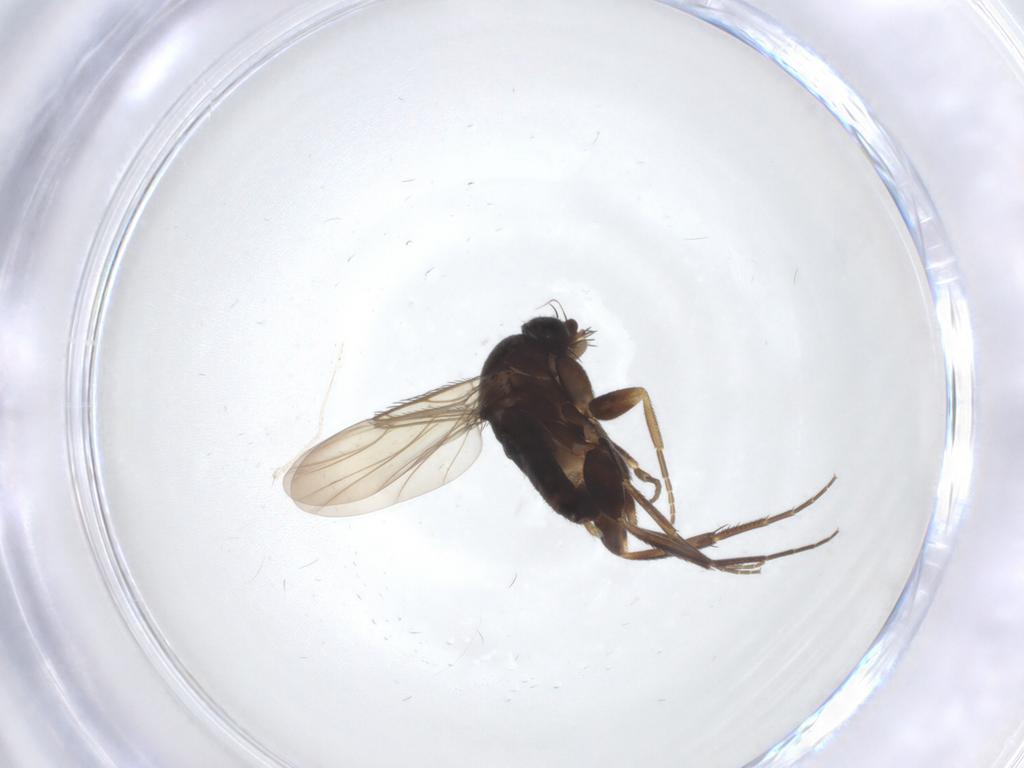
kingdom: Animalia
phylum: Arthropoda
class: Insecta
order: Diptera
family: Phoridae
